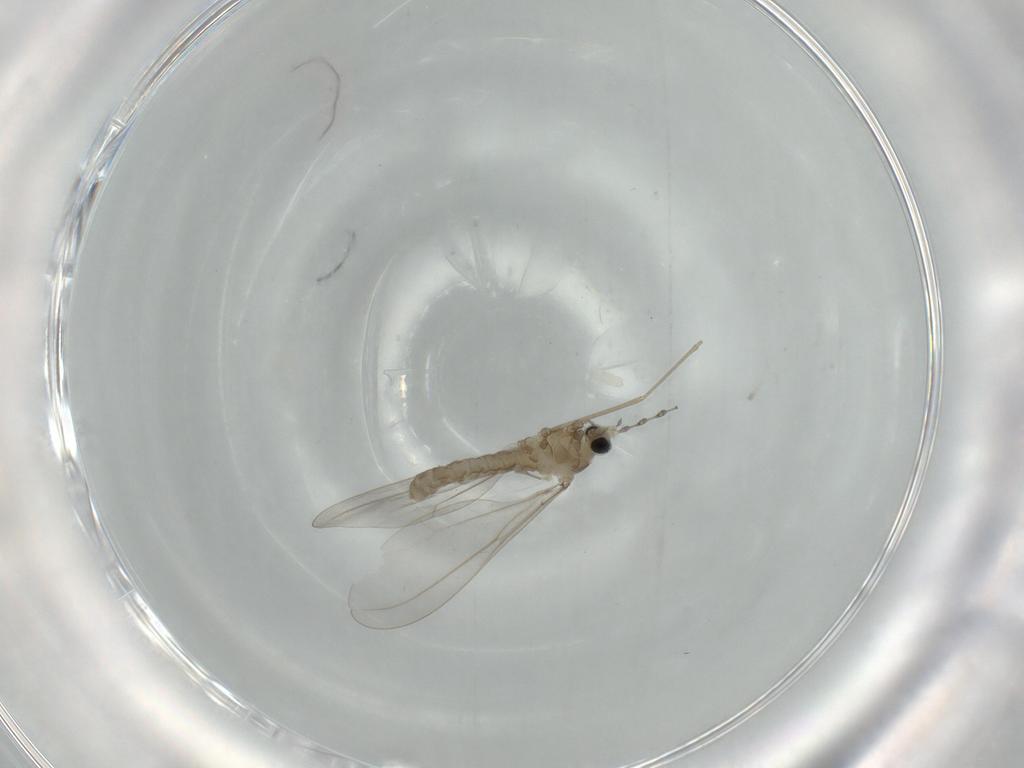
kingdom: Animalia
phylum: Arthropoda
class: Insecta
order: Diptera
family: Cecidomyiidae
